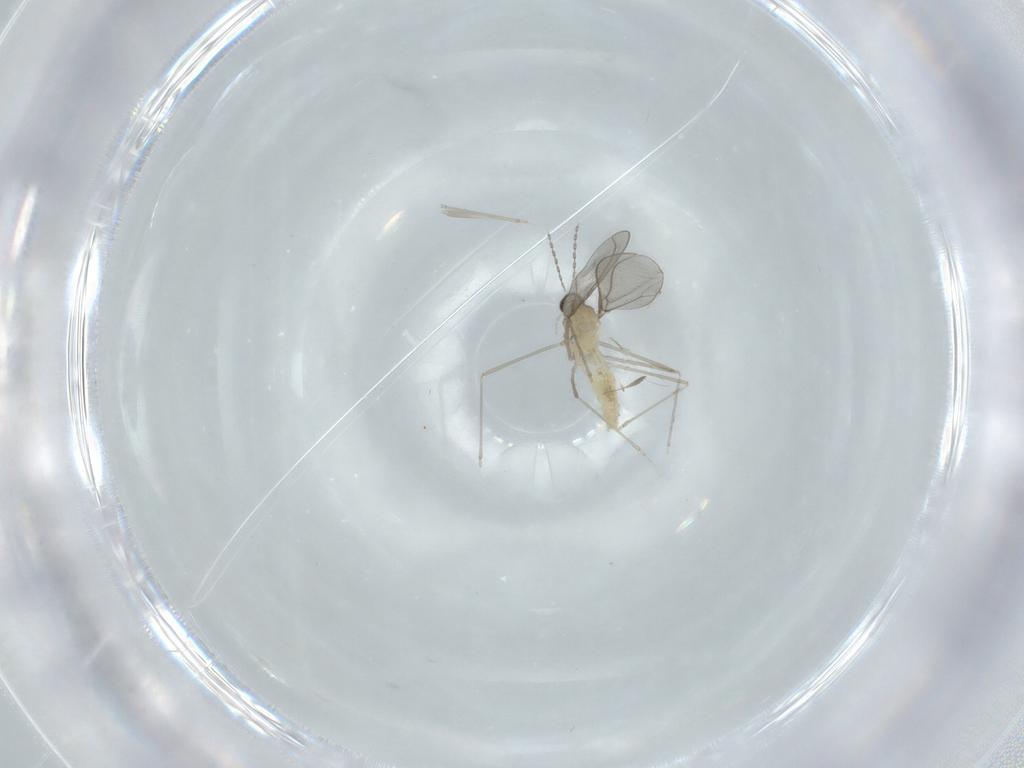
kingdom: Animalia
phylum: Arthropoda
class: Insecta
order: Diptera
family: Cecidomyiidae
